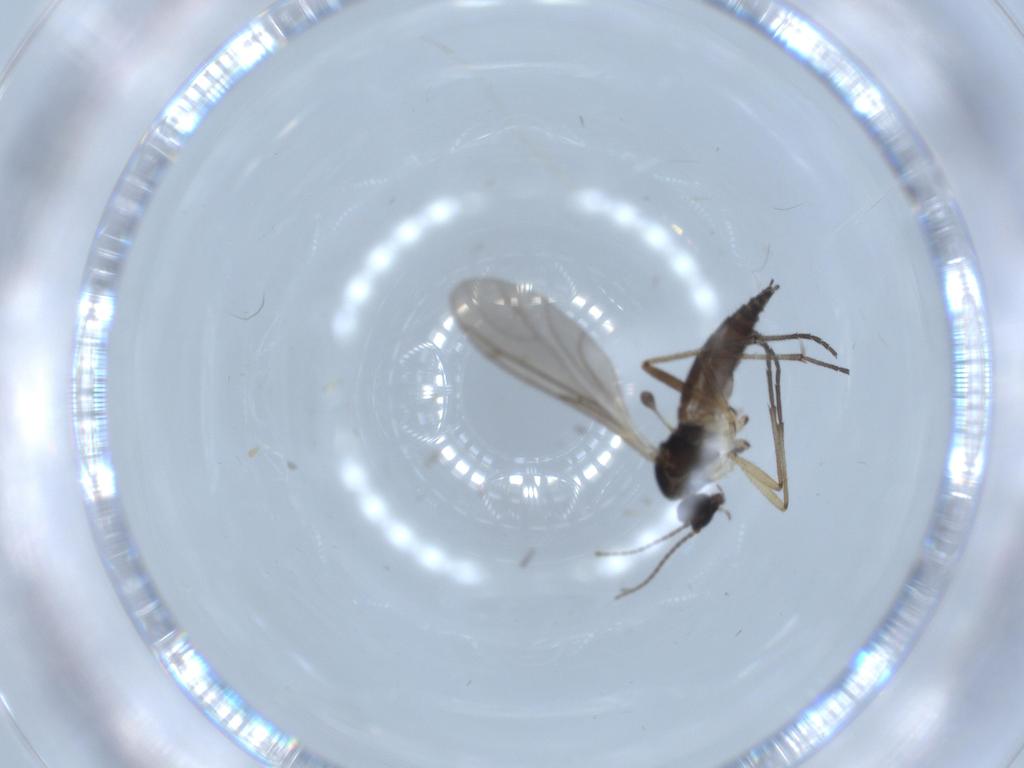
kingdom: Animalia
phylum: Arthropoda
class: Insecta
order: Diptera
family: Sciaridae
